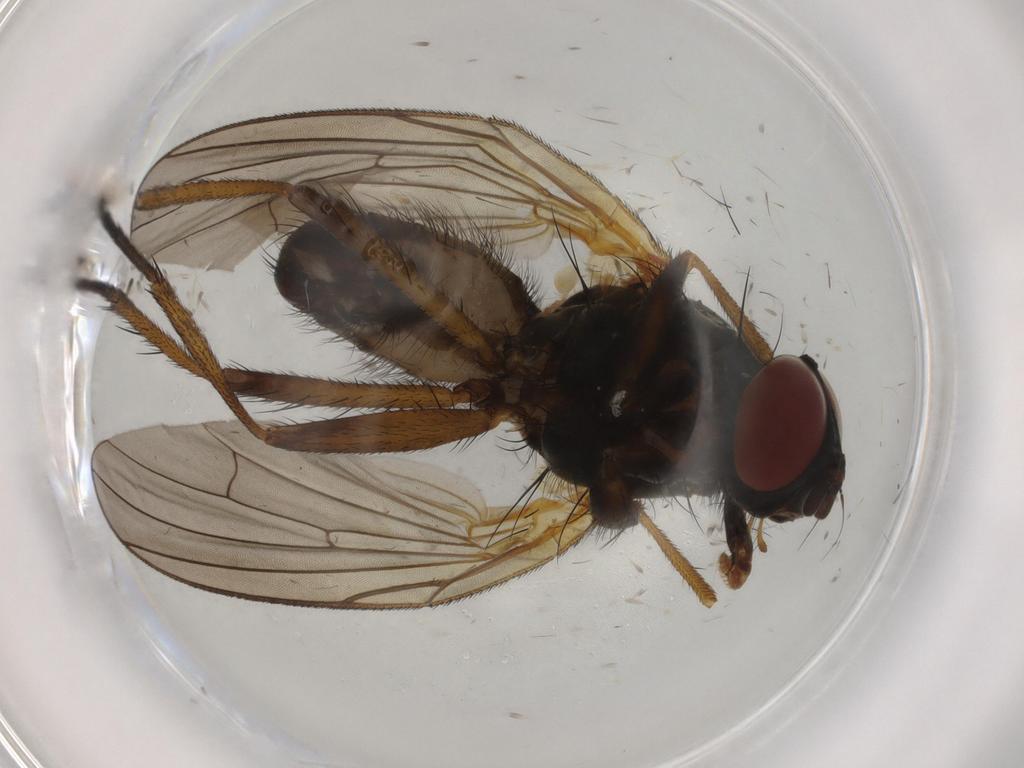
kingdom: Animalia
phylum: Arthropoda
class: Insecta
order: Diptera
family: Anthomyiidae
